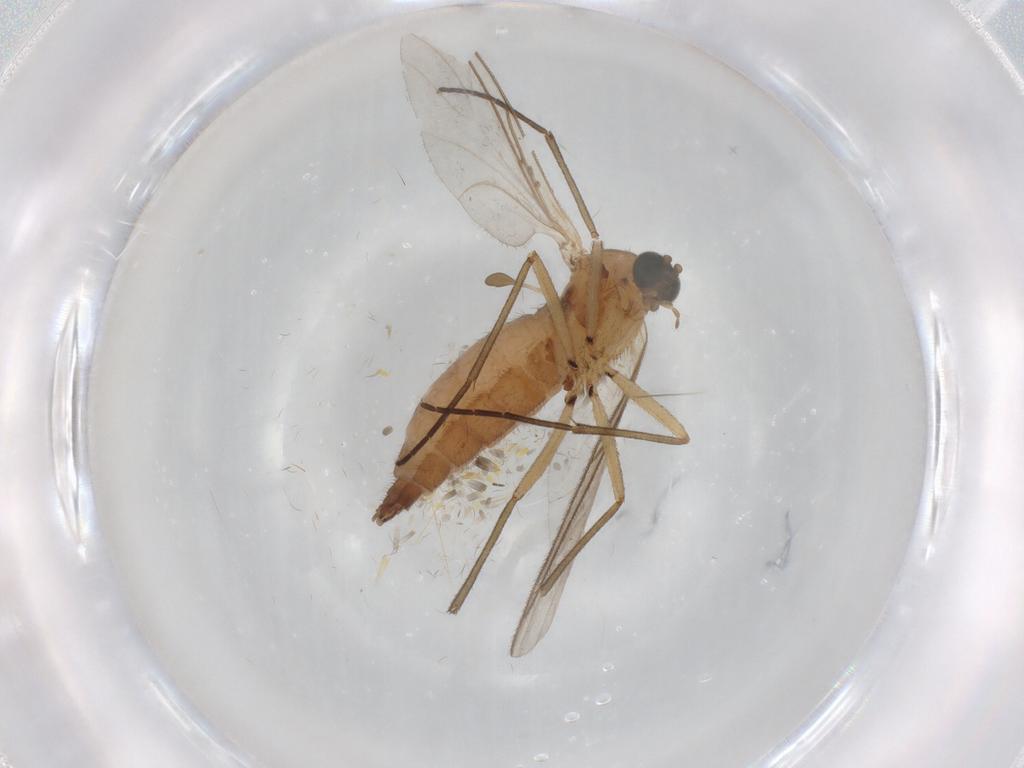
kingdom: Animalia
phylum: Arthropoda
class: Insecta
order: Diptera
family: Sciaridae
